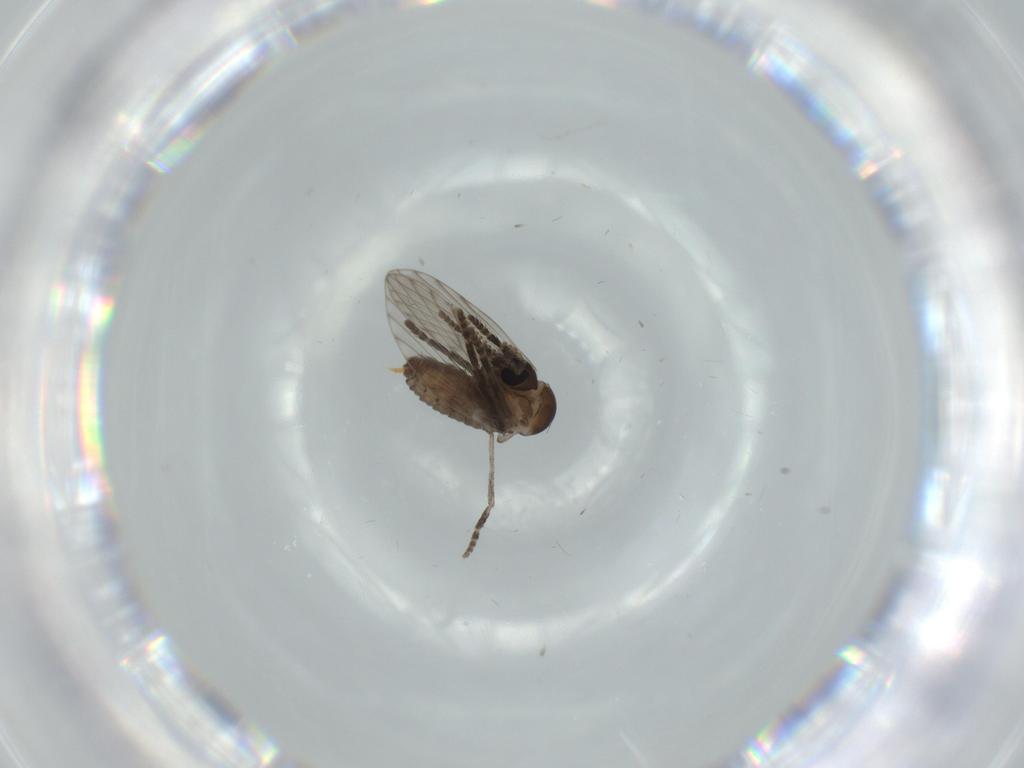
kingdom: Animalia
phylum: Arthropoda
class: Insecta
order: Diptera
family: Psychodidae
